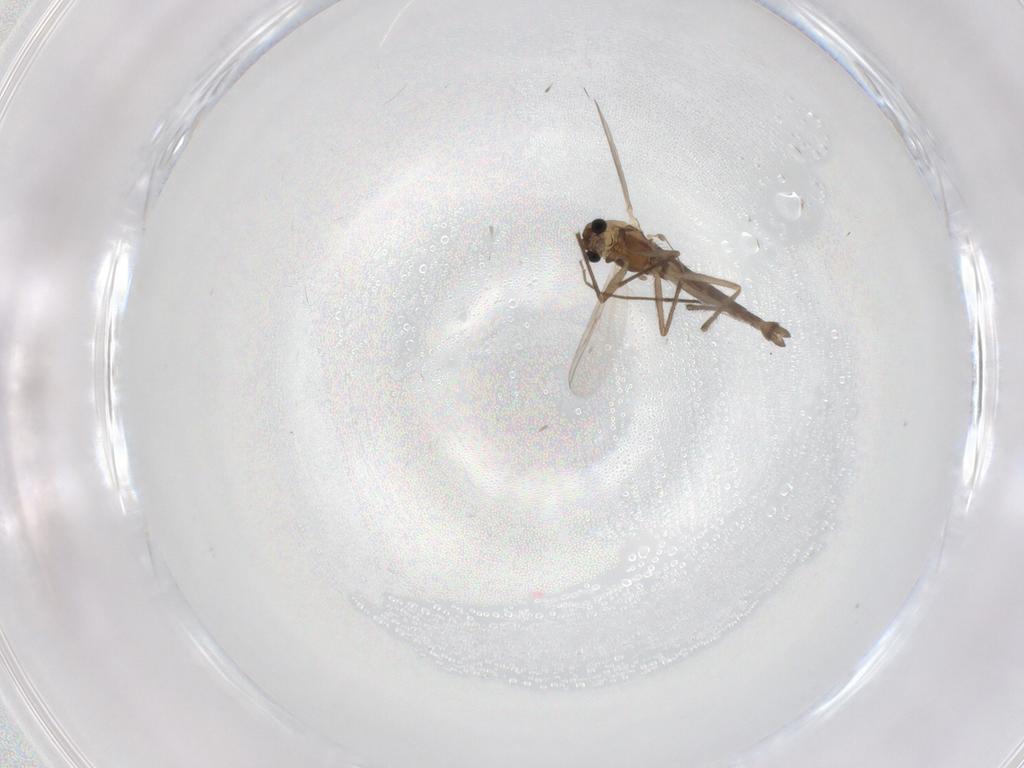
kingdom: Animalia
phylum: Arthropoda
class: Insecta
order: Diptera
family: Chironomidae
